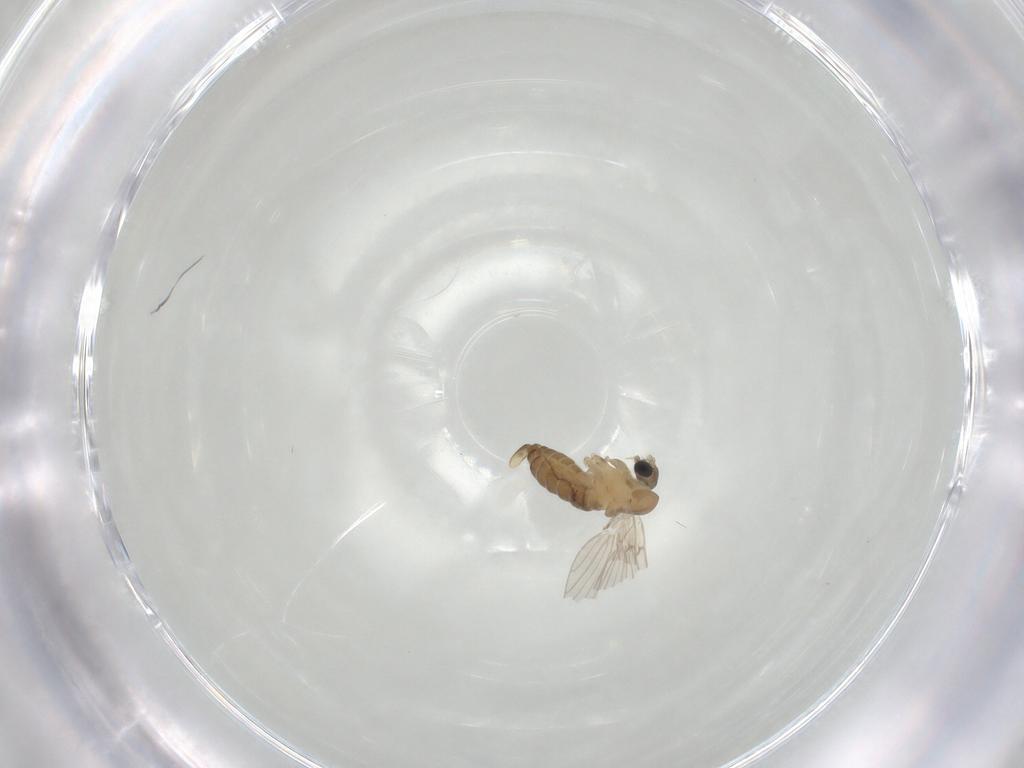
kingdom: Animalia
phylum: Arthropoda
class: Insecta
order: Diptera
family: Psychodidae
